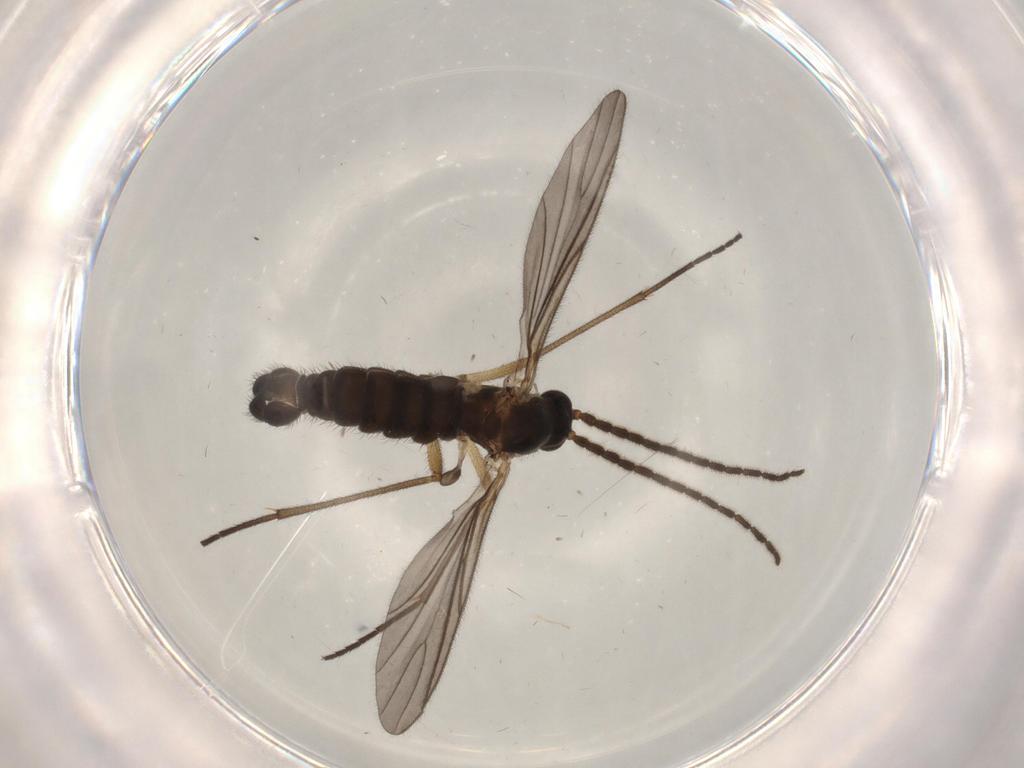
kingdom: Animalia
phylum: Arthropoda
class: Insecta
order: Diptera
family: Sciaridae
